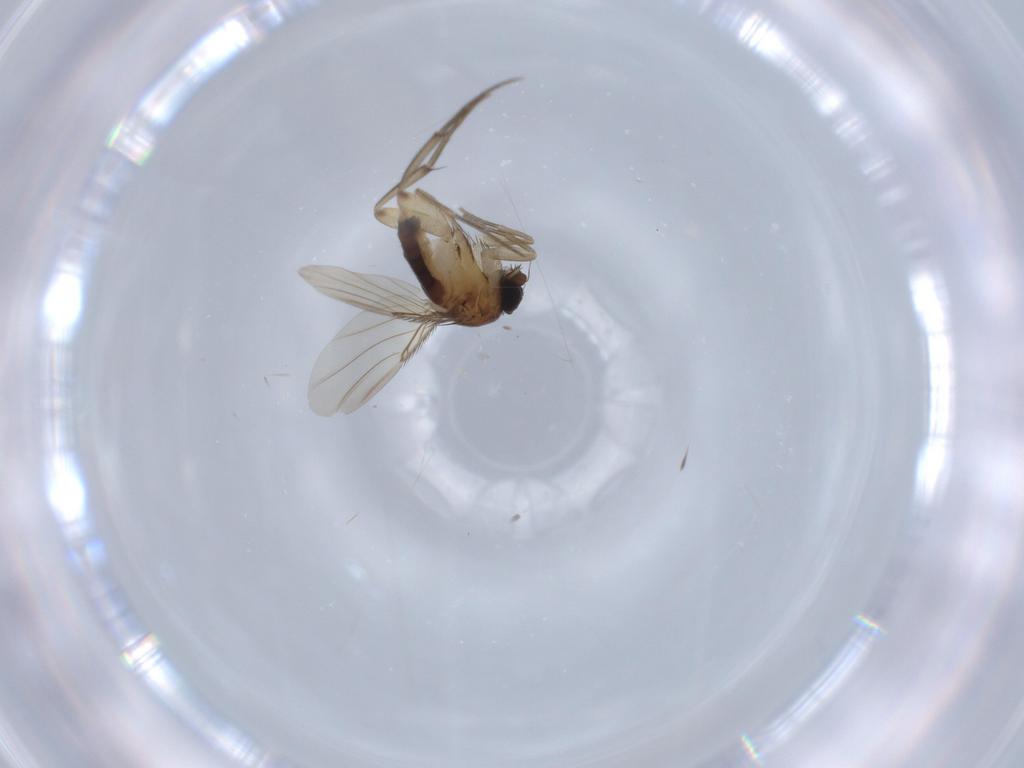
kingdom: Animalia
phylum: Arthropoda
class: Insecta
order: Diptera
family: Phoridae
